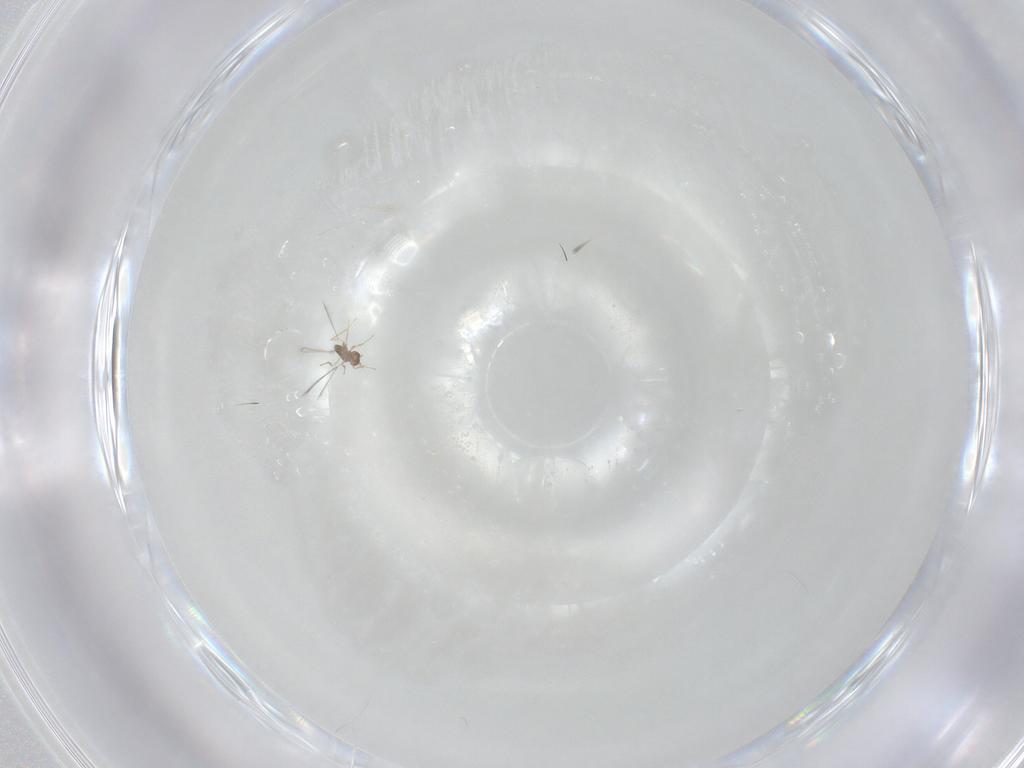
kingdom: Animalia
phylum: Arthropoda
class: Insecta
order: Hymenoptera
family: Mymaridae
